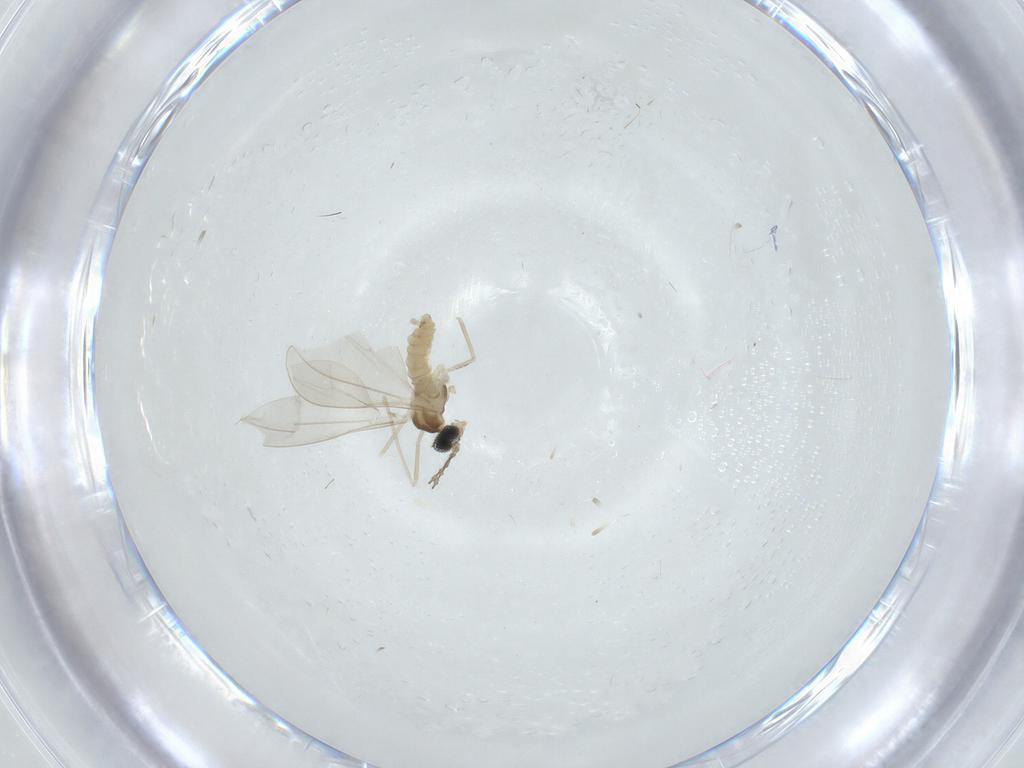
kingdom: Animalia
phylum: Arthropoda
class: Insecta
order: Diptera
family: Cecidomyiidae
